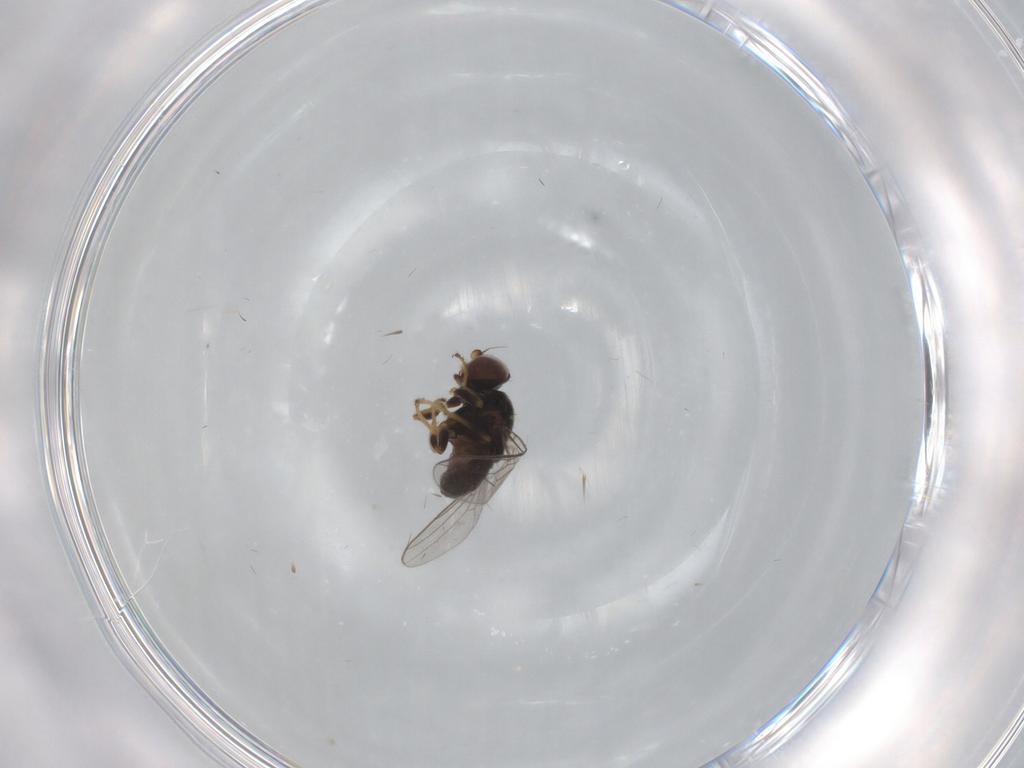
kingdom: Animalia
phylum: Arthropoda
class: Insecta
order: Diptera
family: Chloropidae
